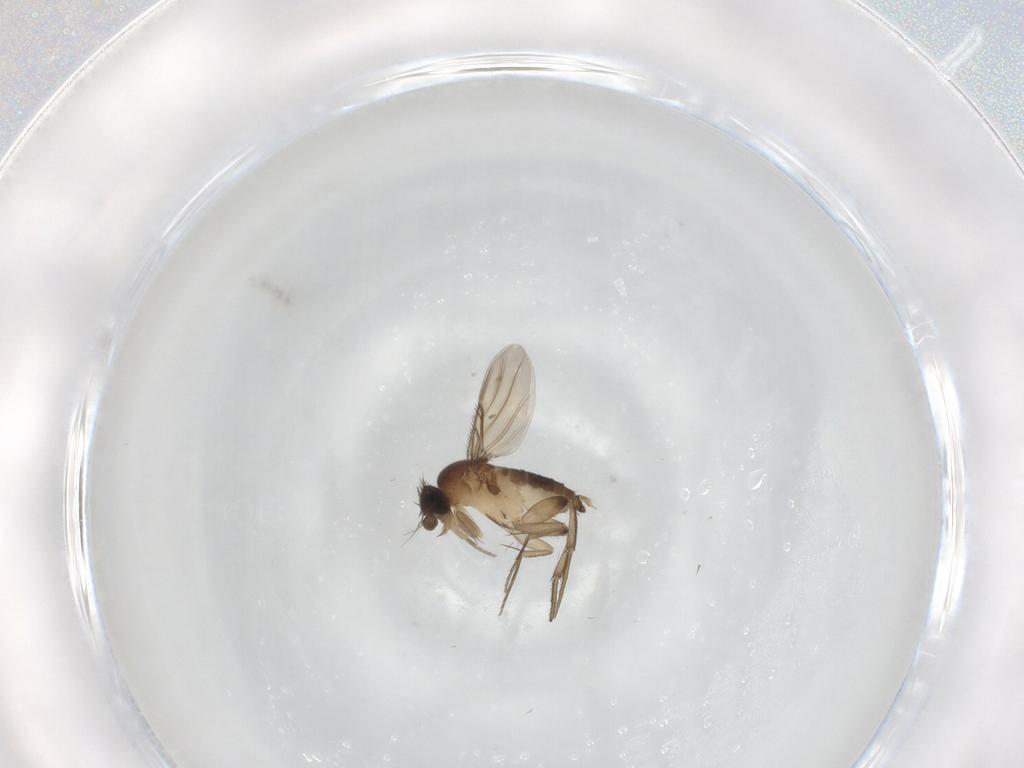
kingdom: Animalia
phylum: Arthropoda
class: Insecta
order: Diptera
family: Phoridae
